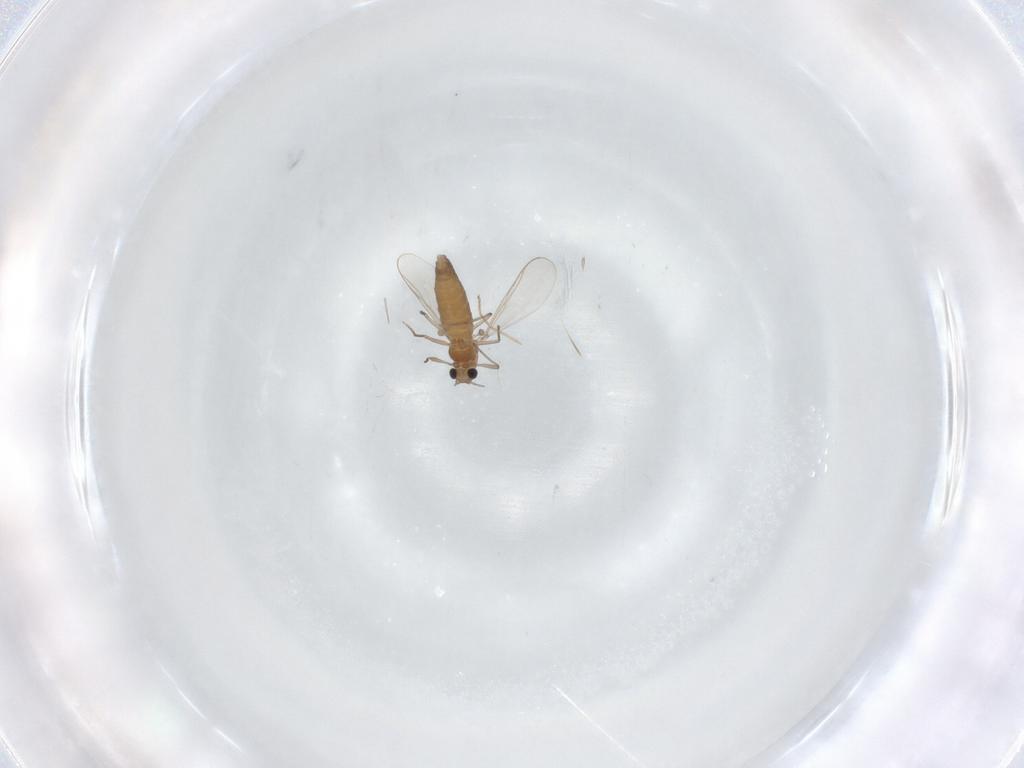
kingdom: Animalia
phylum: Arthropoda
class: Insecta
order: Diptera
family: Chironomidae
